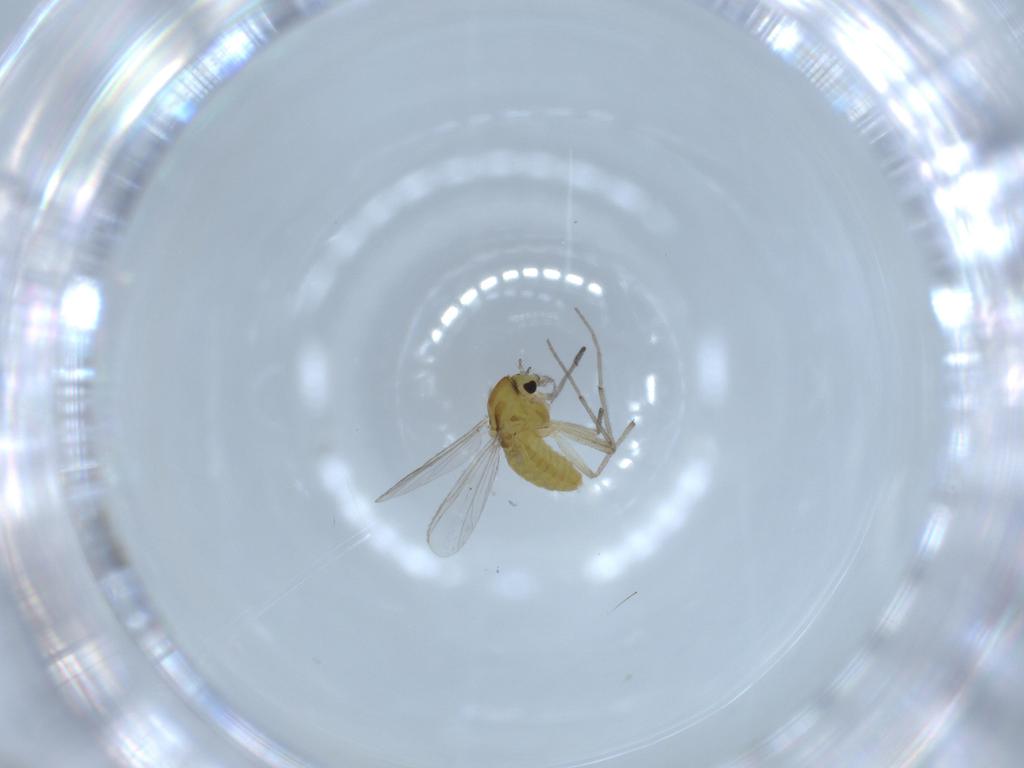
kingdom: Animalia
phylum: Arthropoda
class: Insecta
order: Diptera
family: Chironomidae
